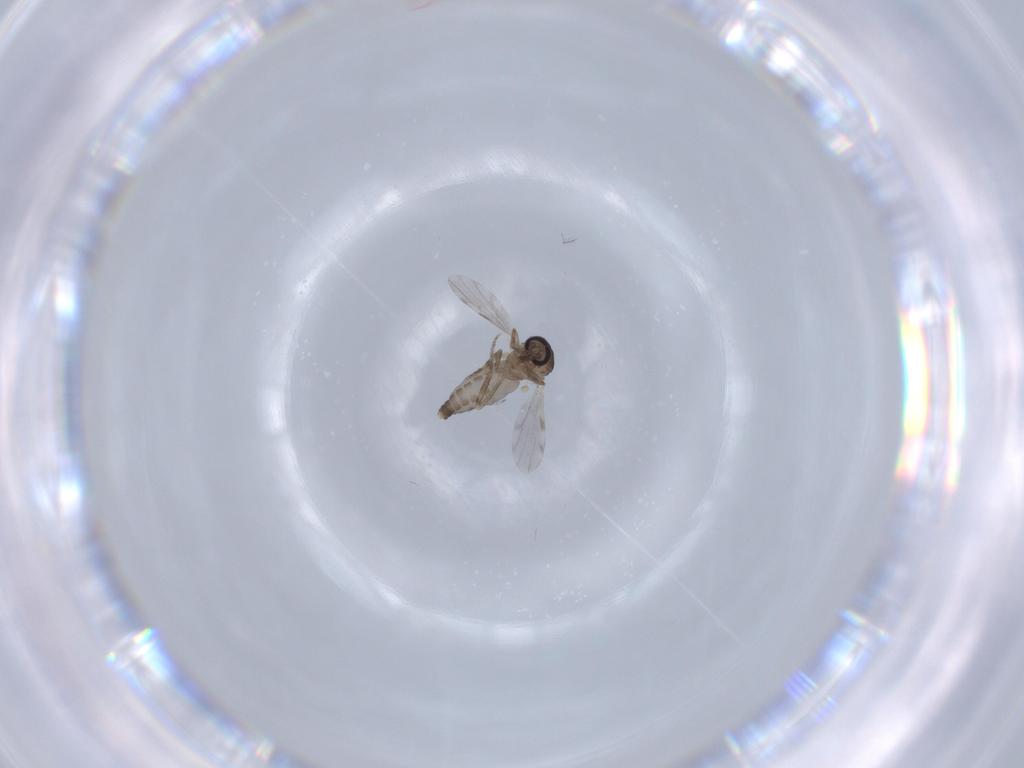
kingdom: Animalia
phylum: Arthropoda
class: Insecta
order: Diptera
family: Ceratopogonidae
